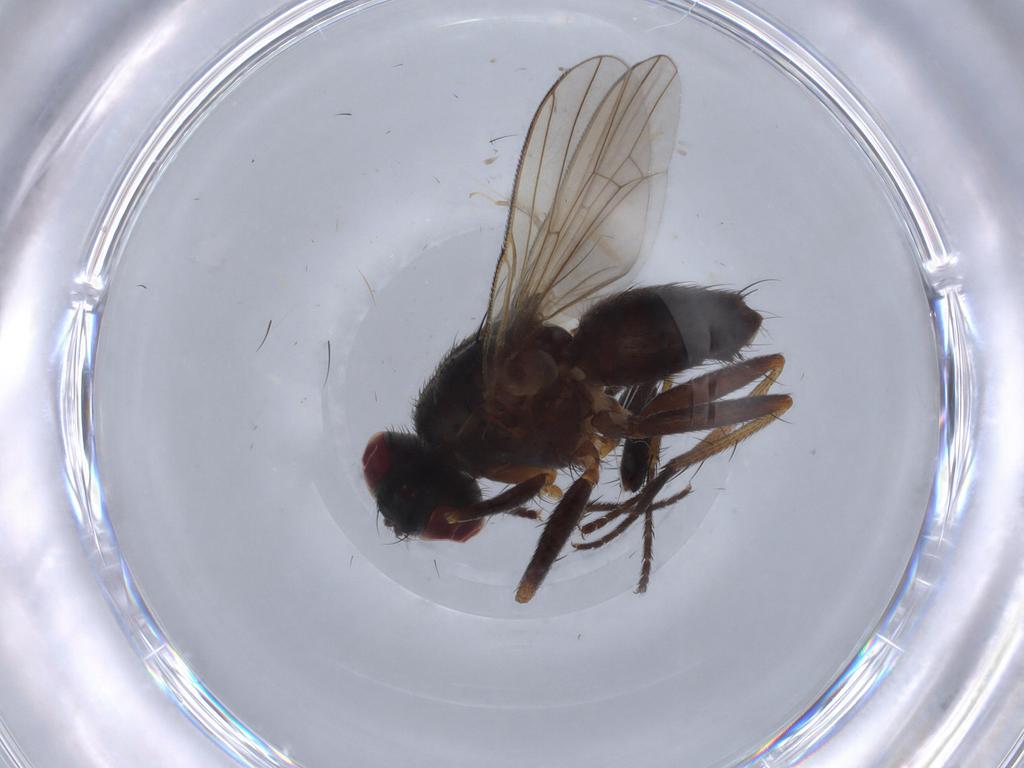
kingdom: Animalia
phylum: Arthropoda
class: Insecta
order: Diptera
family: Muscidae
